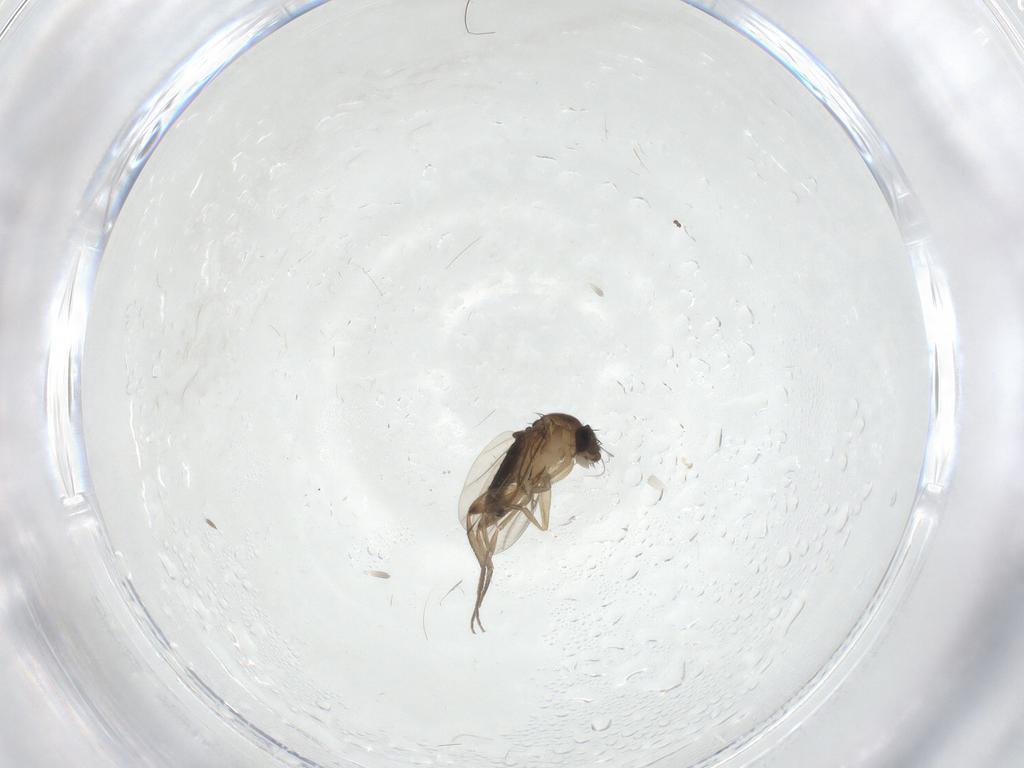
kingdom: Animalia
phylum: Arthropoda
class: Insecta
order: Diptera
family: Phoridae
